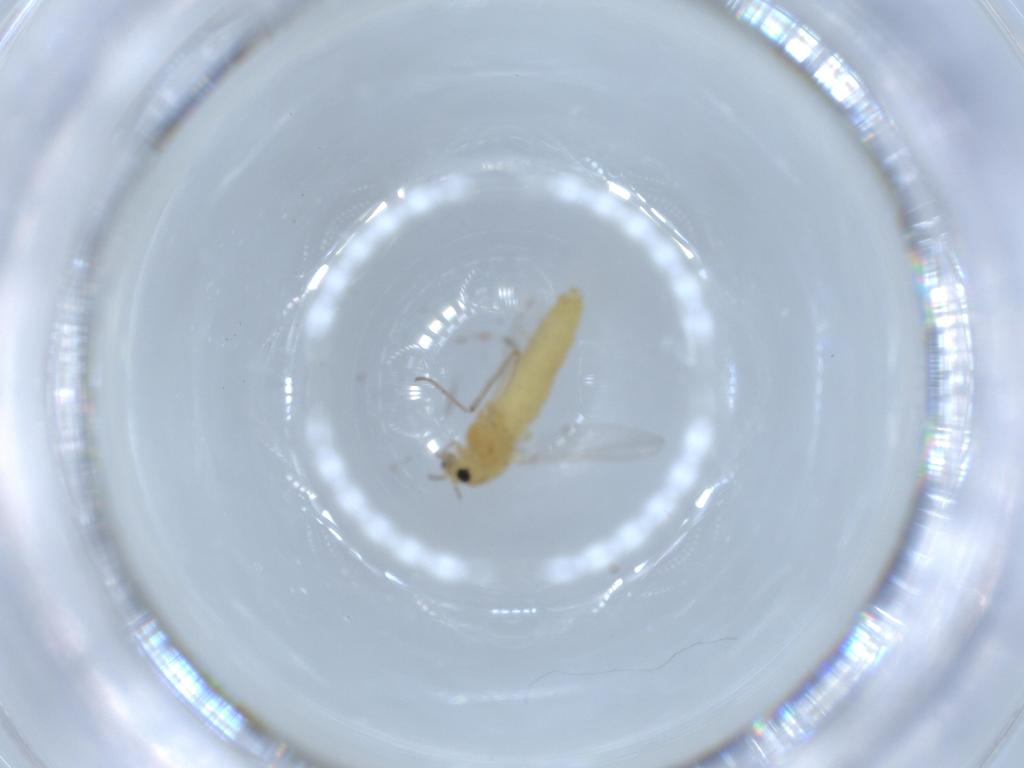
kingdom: Animalia
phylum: Arthropoda
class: Insecta
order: Diptera
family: Chironomidae
